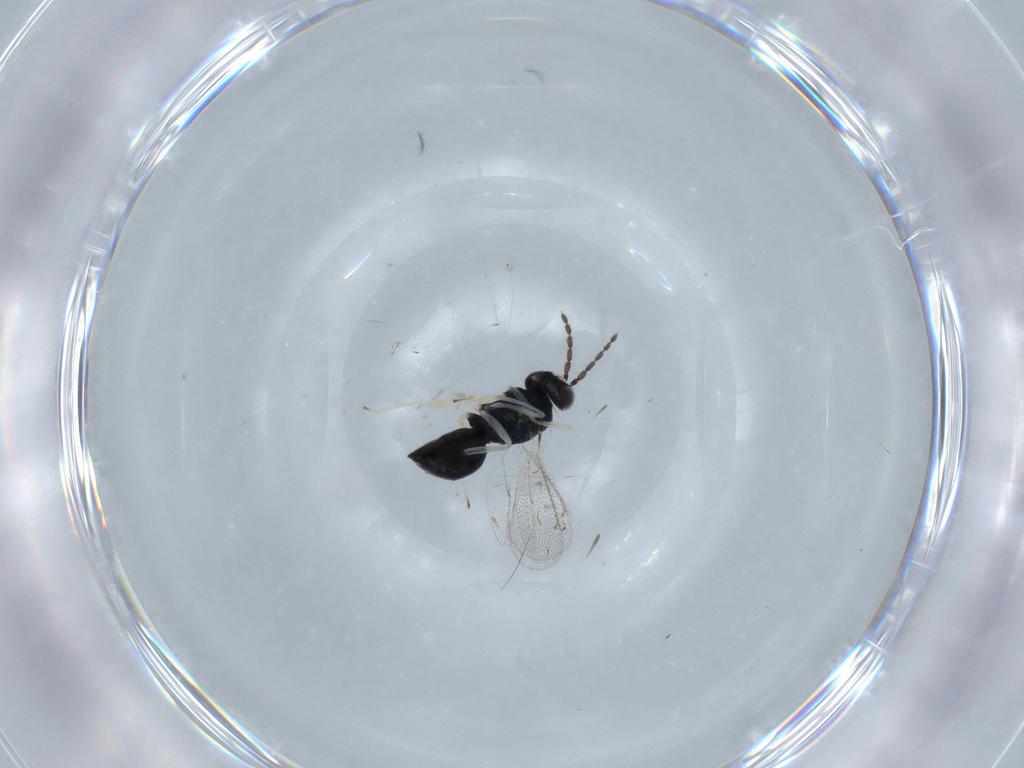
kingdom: Animalia
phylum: Arthropoda
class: Insecta
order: Hymenoptera
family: Eulophidae
